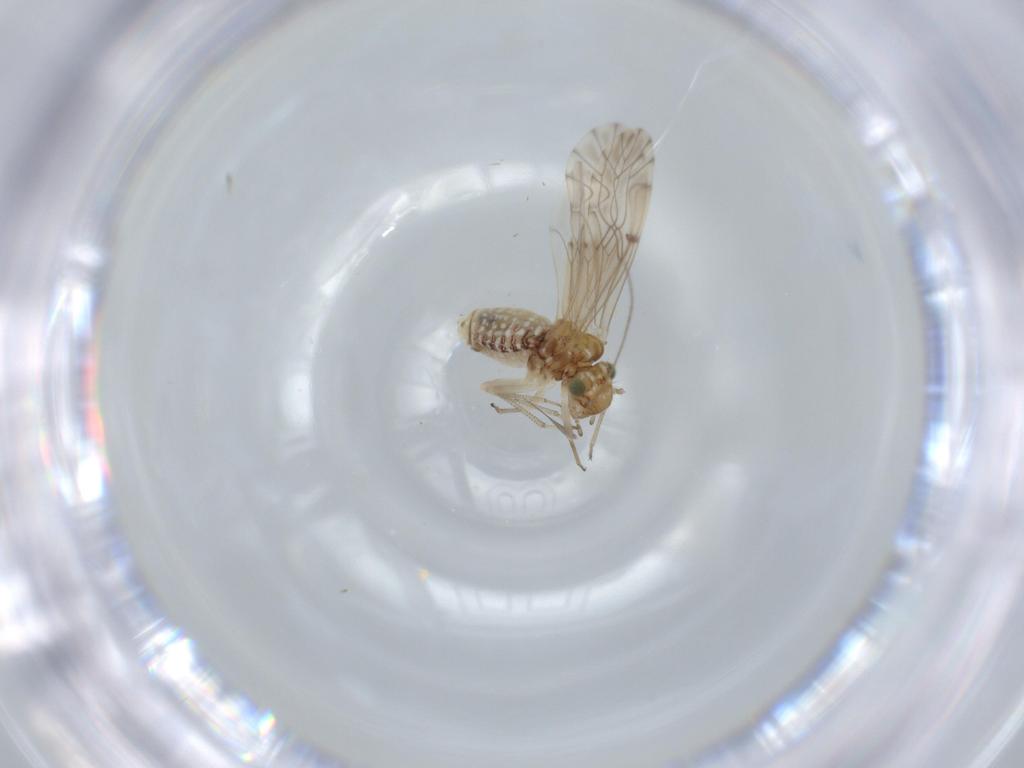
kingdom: Animalia
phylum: Arthropoda
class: Insecta
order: Psocodea
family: Lachesillidae
